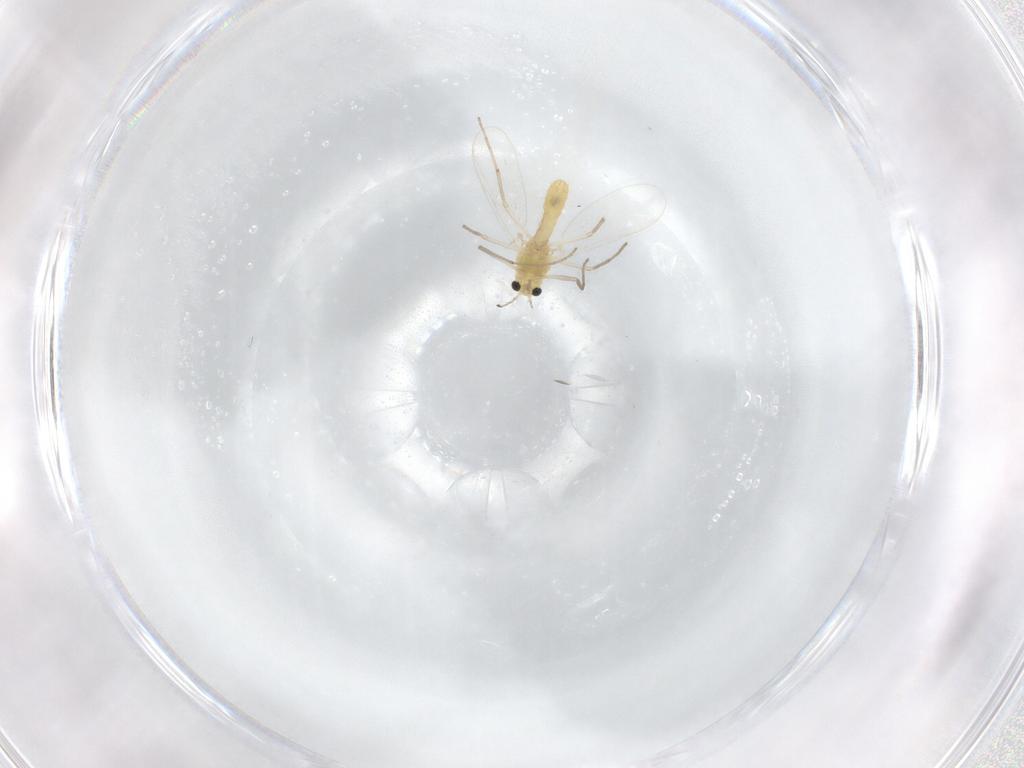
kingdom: Animalia
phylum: Arthropoda
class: Insecta
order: Diptera
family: Chironomidae
